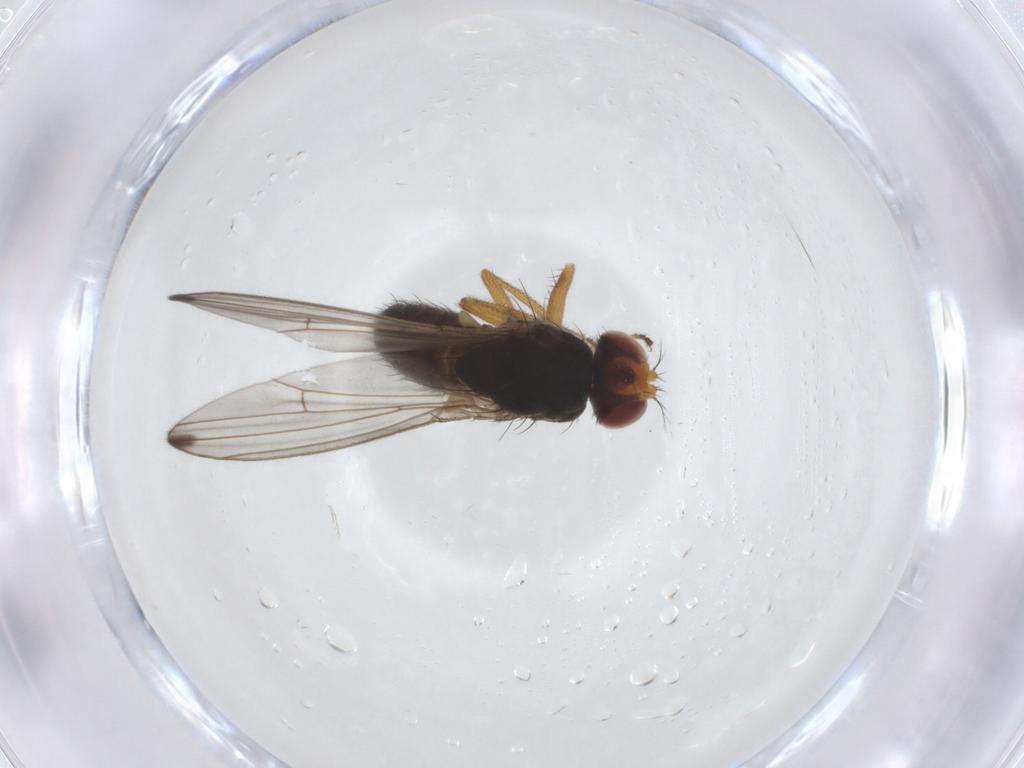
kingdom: Animalia
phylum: Arthropoda
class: Insecta
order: Diptera
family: Drosophilidae
